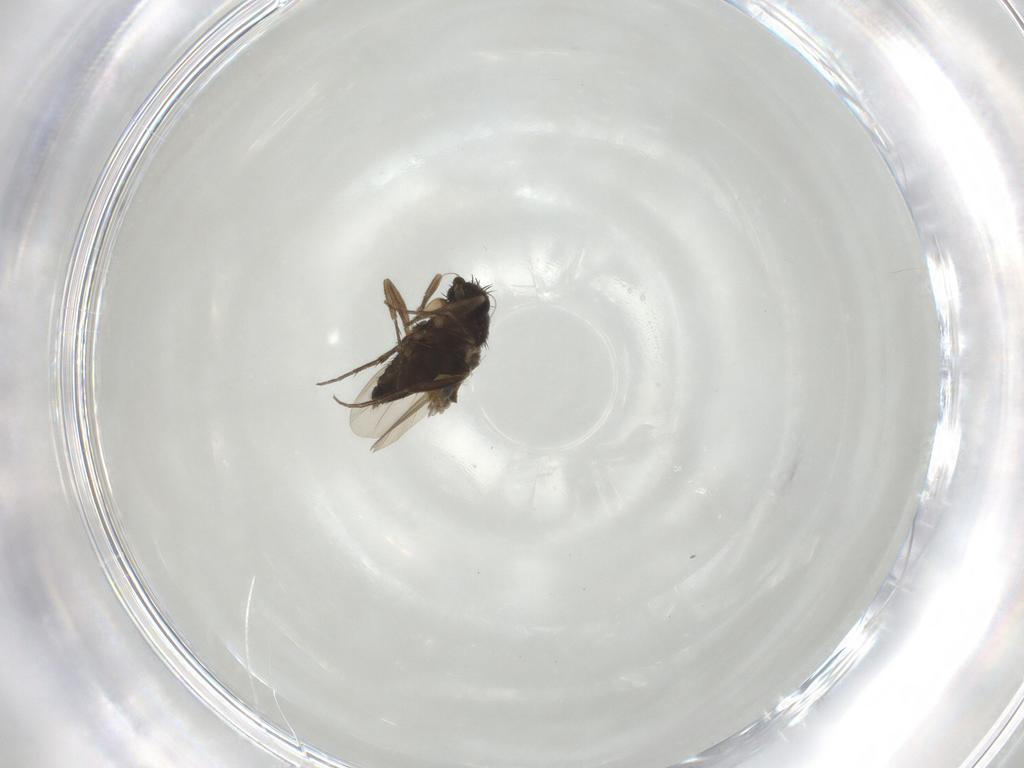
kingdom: Animalia
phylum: Arthropoda
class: Insecta
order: Diptera
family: Phoridae
